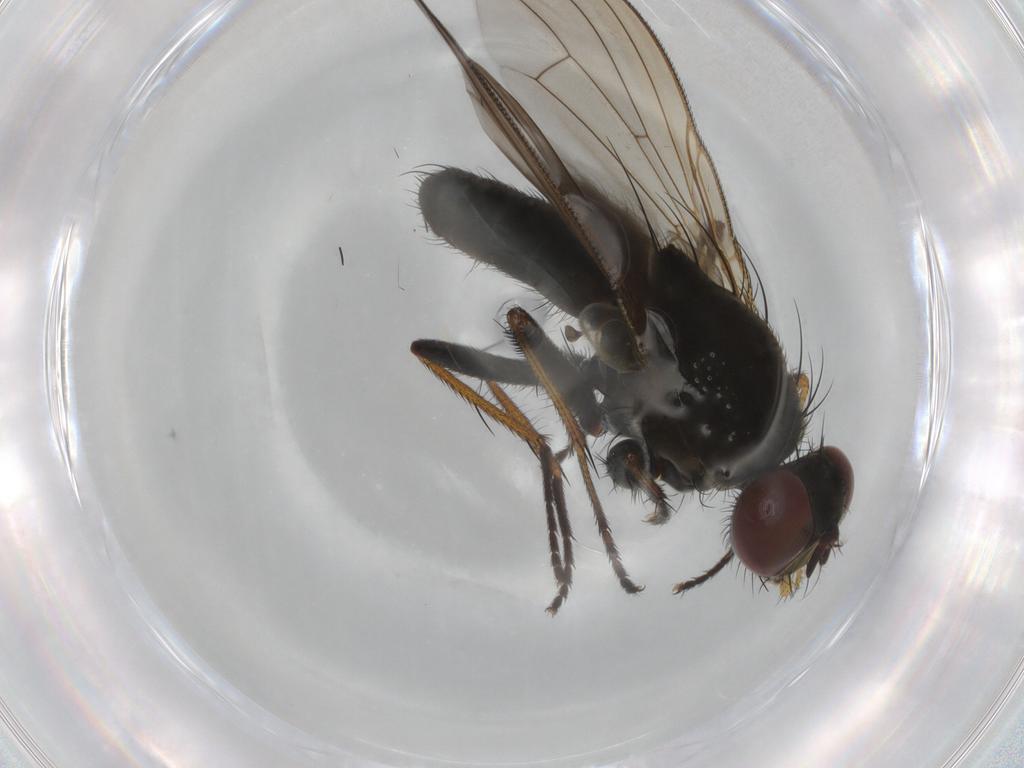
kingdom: Animalia
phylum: Arthropoda
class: Insecta
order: Diptera
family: Muscidae
